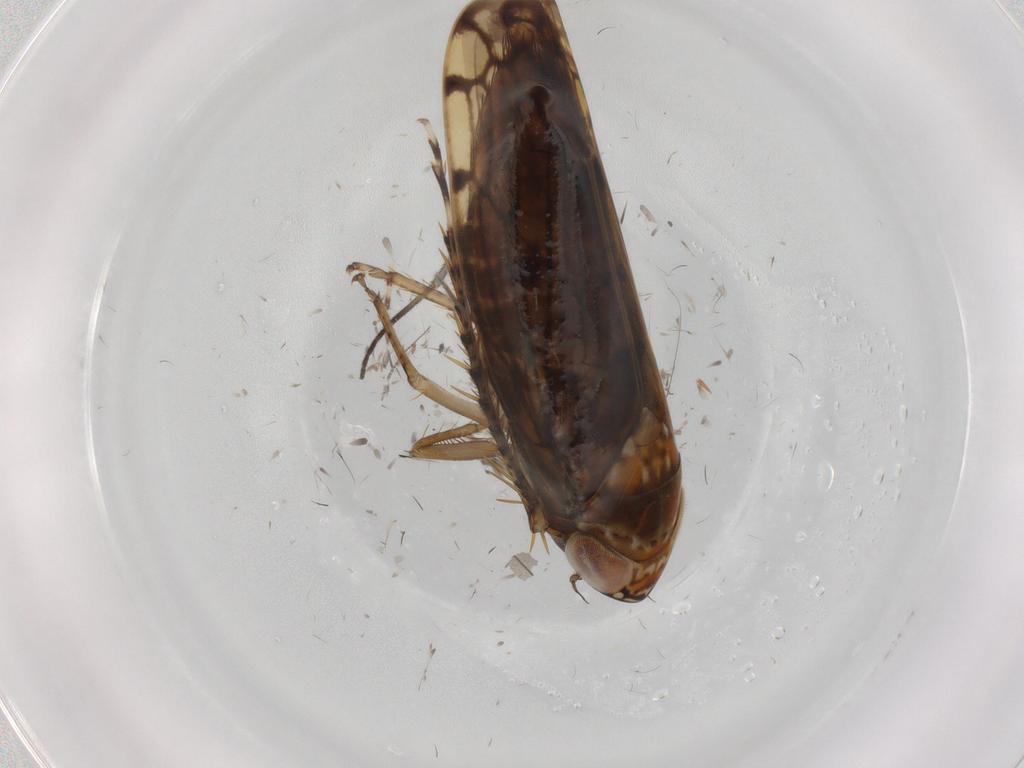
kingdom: Animalia
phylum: Arthropoda
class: Insecta
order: Hemiptera
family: Cicadellidae
